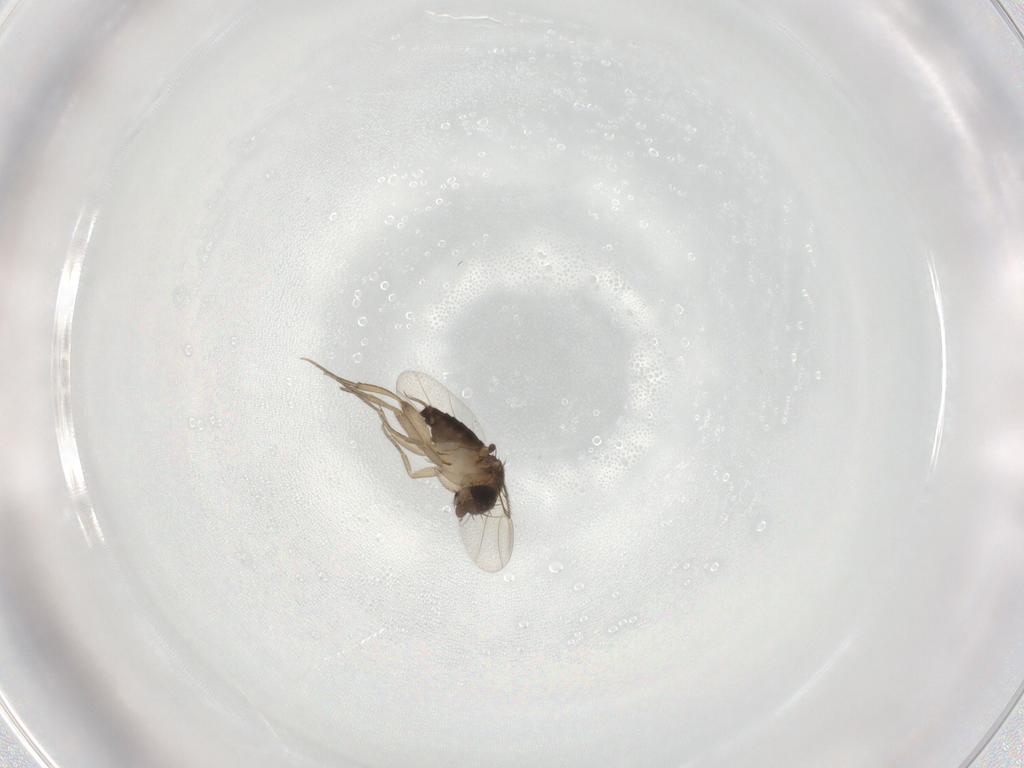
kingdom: Animalia
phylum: Arthropoda
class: Insecta
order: Diptera
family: Phoridae
